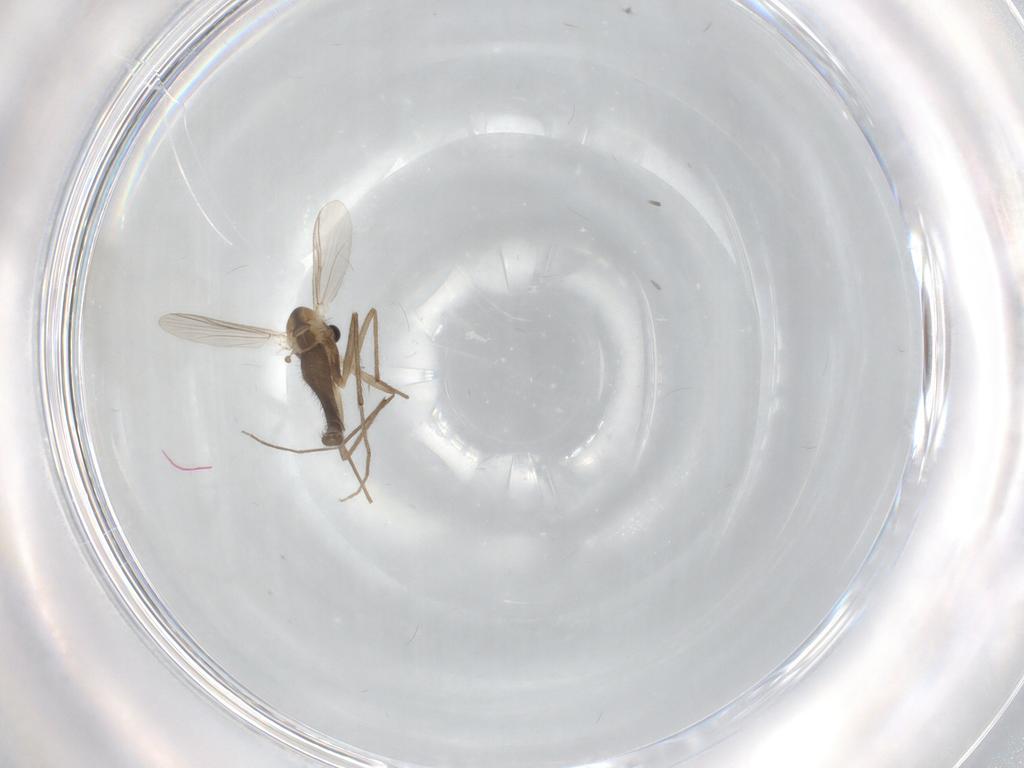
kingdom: Animalia
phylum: Arthropoda
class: Insecta
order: Diptera
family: Chironomidae
